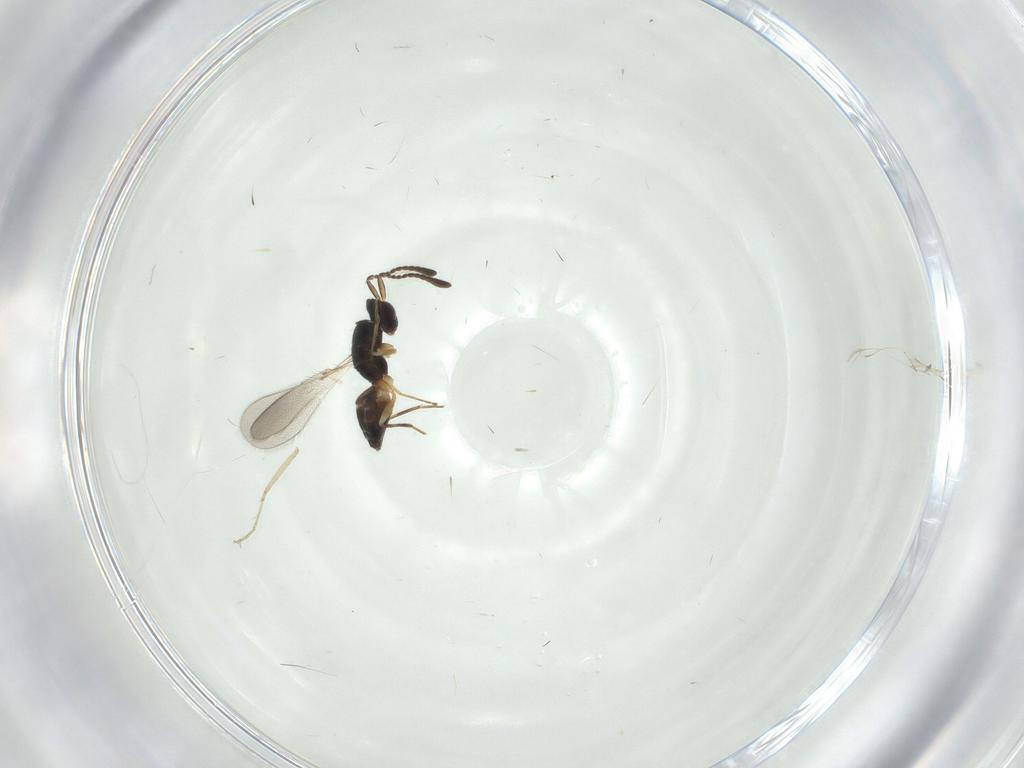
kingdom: Animalia
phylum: Arthropoda
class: Insecta
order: Hymenoptera
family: Mymaridae
